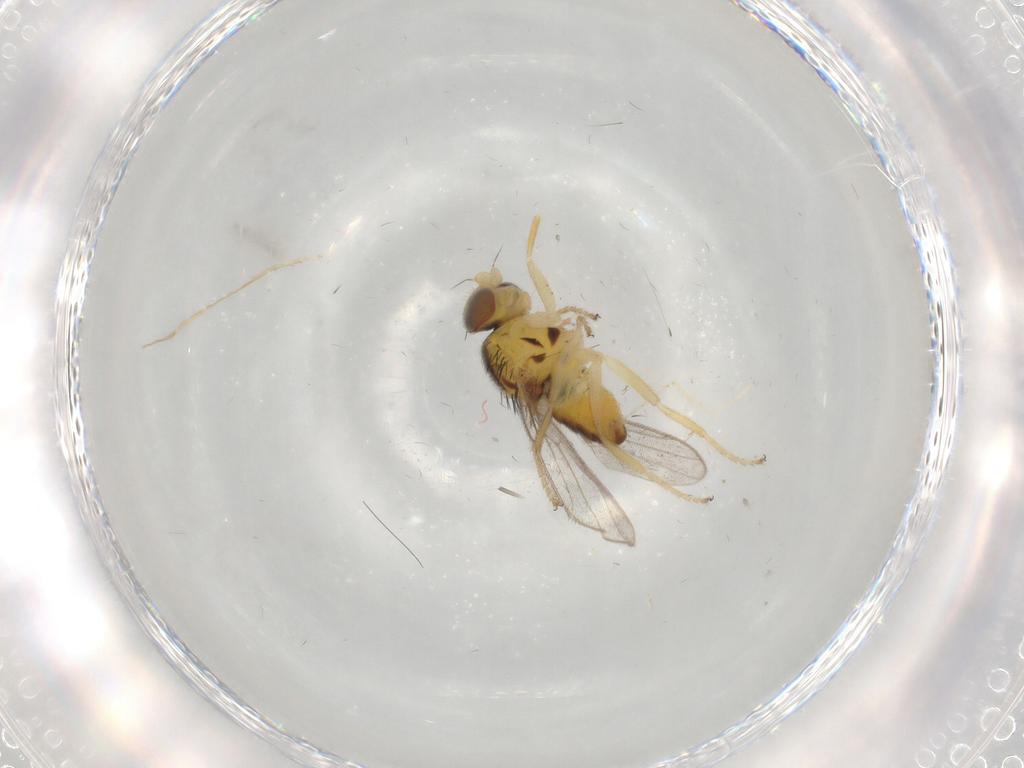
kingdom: Animalia
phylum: Arthropoda
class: Insecta
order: Diptera
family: Chloropidae
